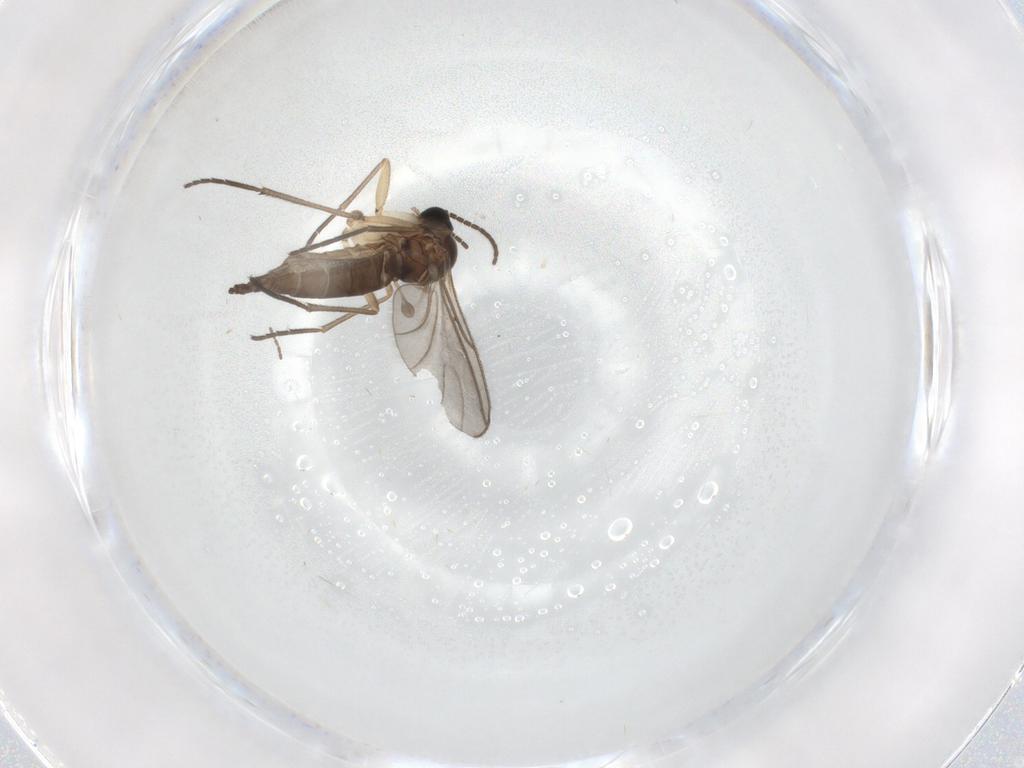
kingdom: Animalia
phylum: Arthropoda
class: Insecta
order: Diptera
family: Sciaridae
